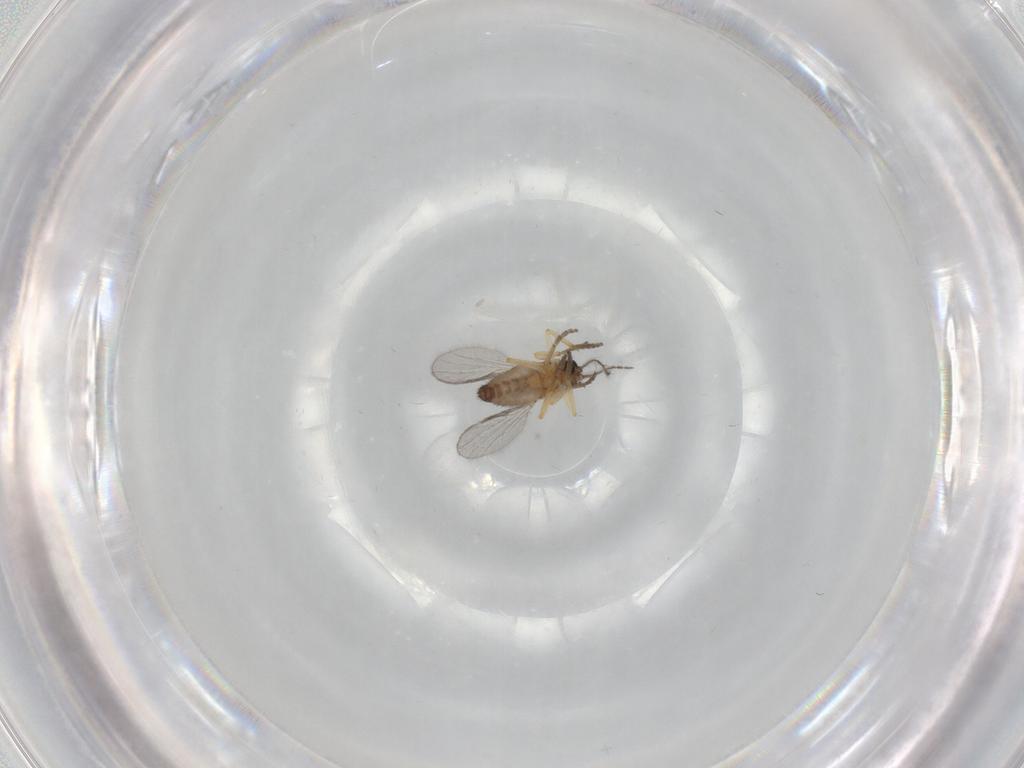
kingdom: Animalia
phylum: Arthropoda
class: Insecta
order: Diptera
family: Ceratopogonidae
